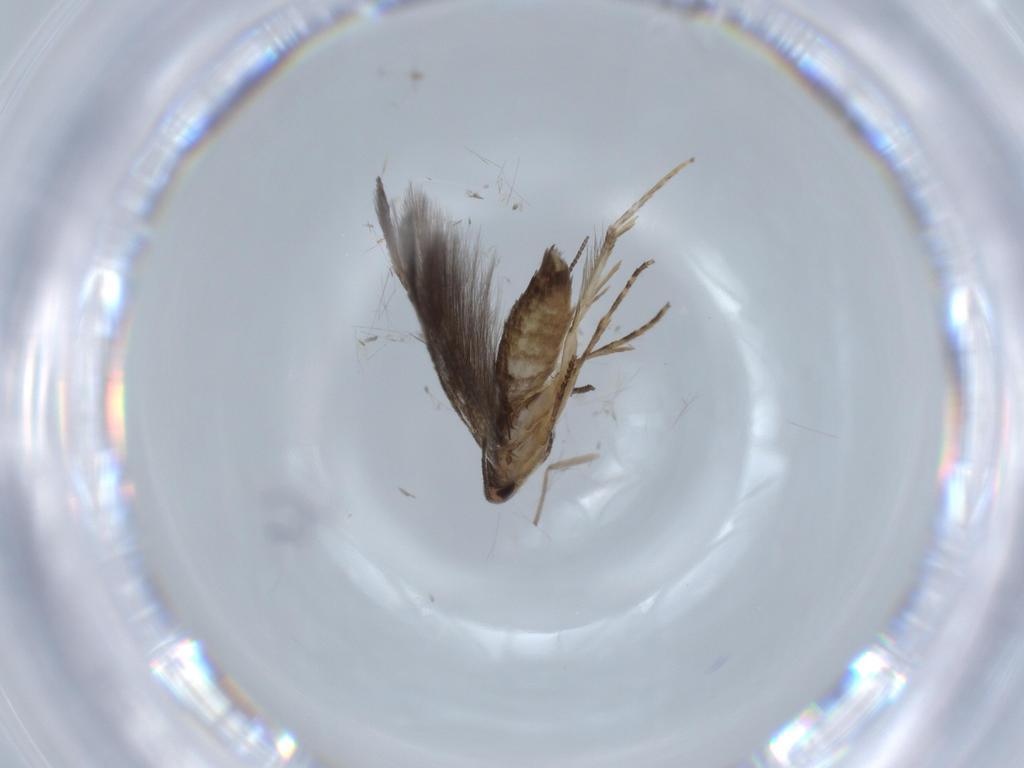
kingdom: Animalia
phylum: Arthropoda
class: Insecta
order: Lepidoptera
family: Gelechiidae
